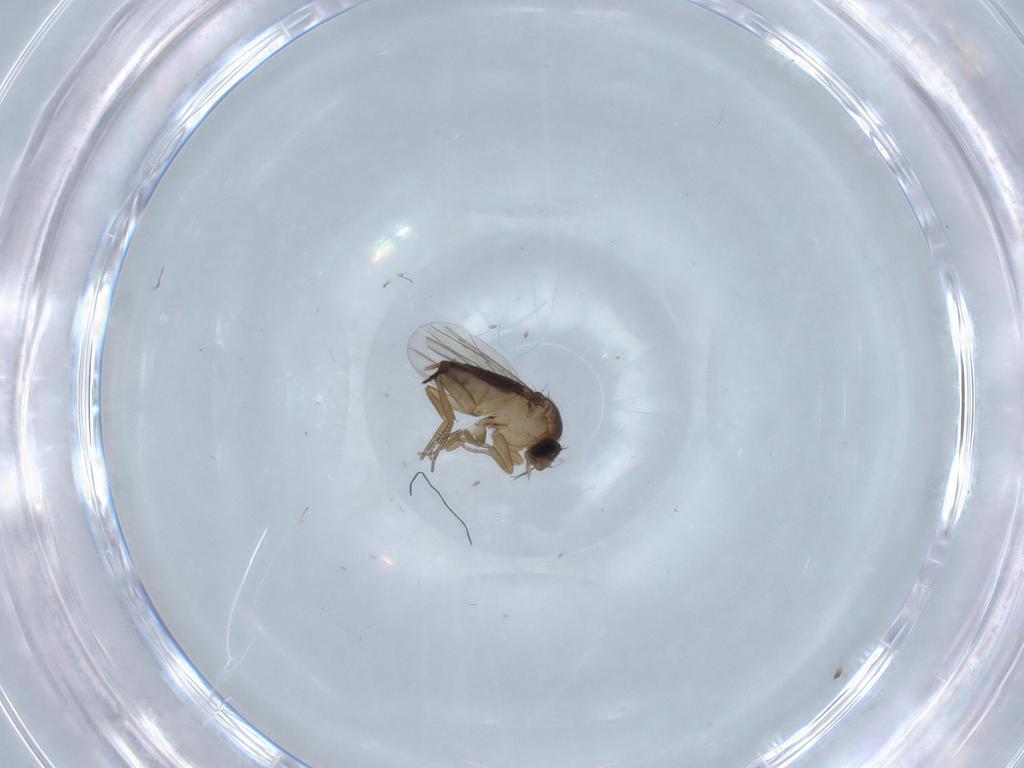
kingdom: Animalia
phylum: Arthropoda
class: Insecta
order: Diptera
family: Phoridae
